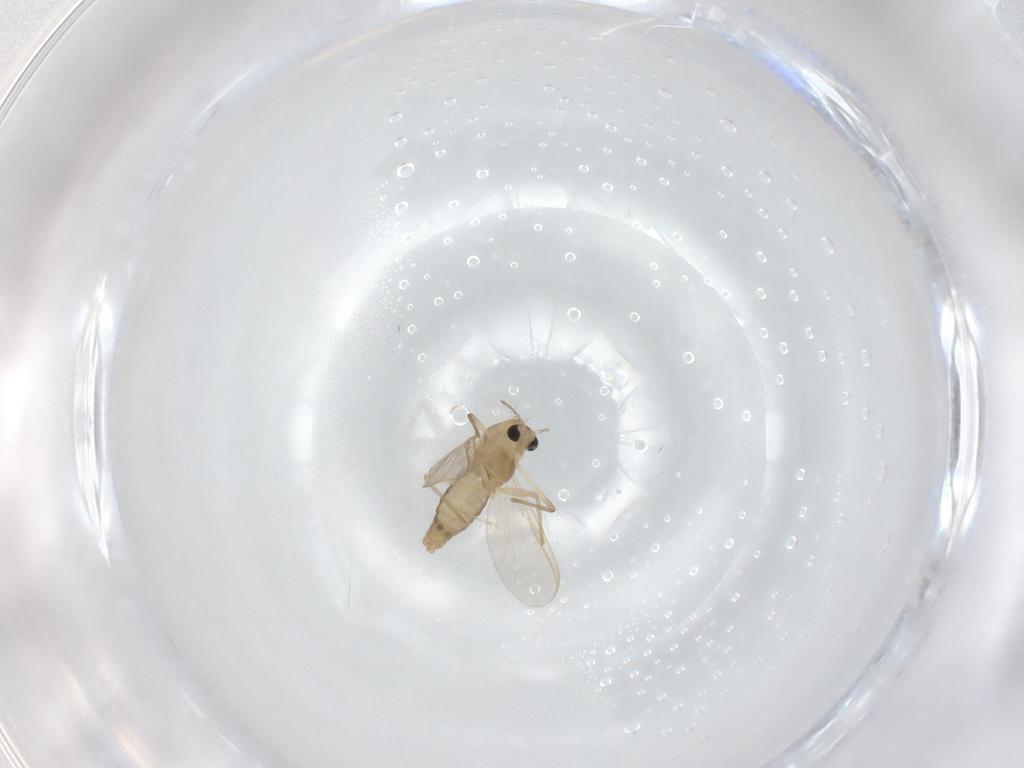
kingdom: Animalia
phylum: Arthropoda
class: Insecta
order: Diptera
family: Chironomidae
